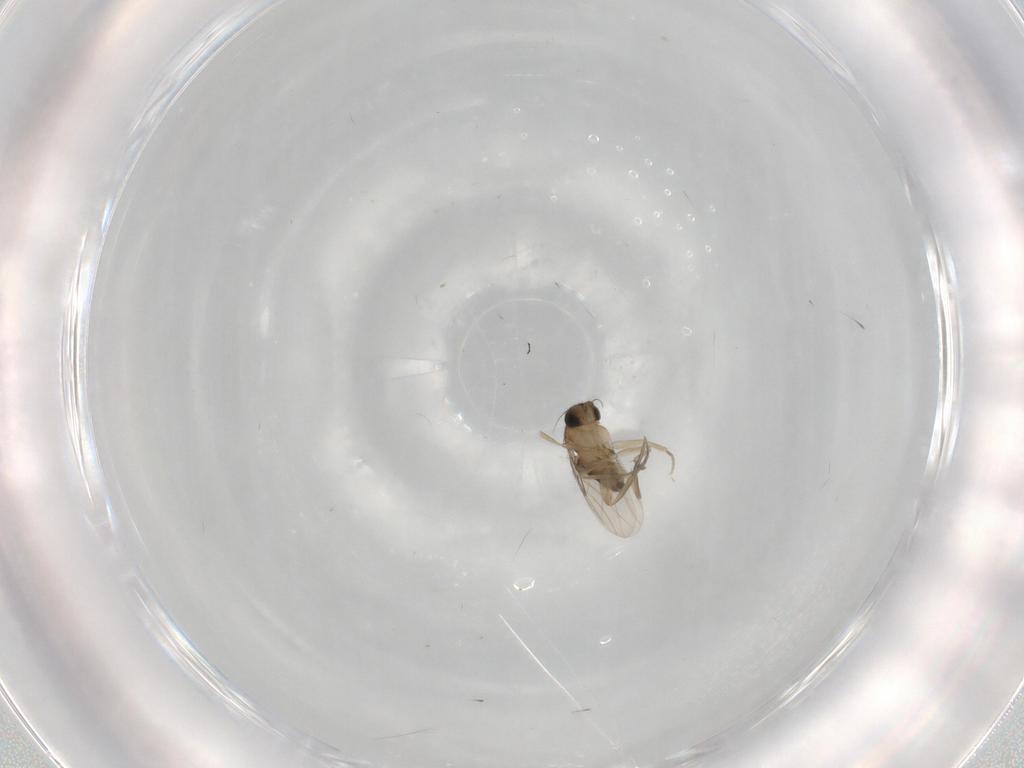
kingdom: Animalia
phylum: Arthropoda
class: Insecta
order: Diptera
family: Phoridae
